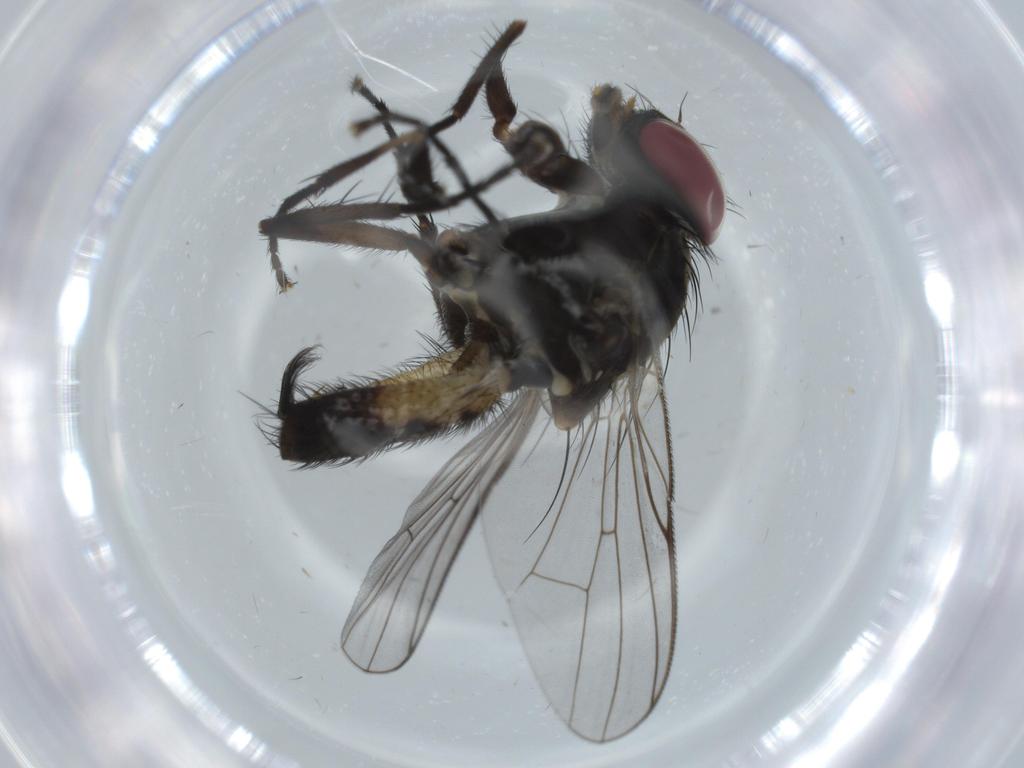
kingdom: Animalia
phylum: Arthropoda
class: Insecta
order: Diptera
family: Fannia
